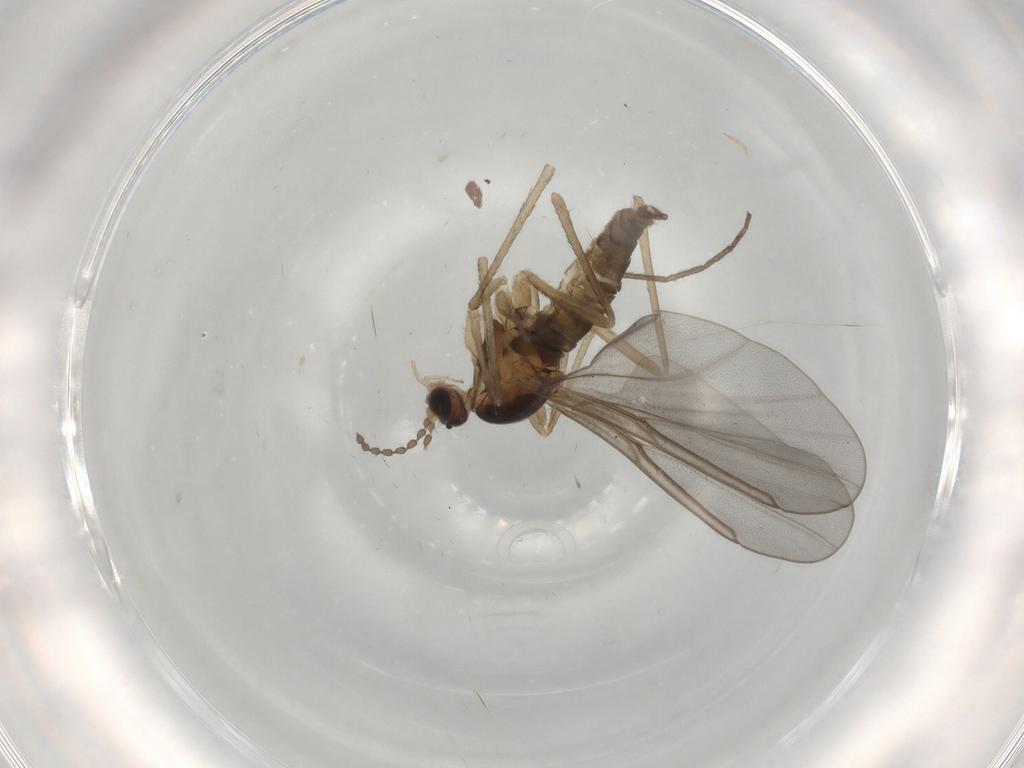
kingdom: Animalia
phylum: Arthropoda
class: Insecta
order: Diptera
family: Cecidomyiidae
